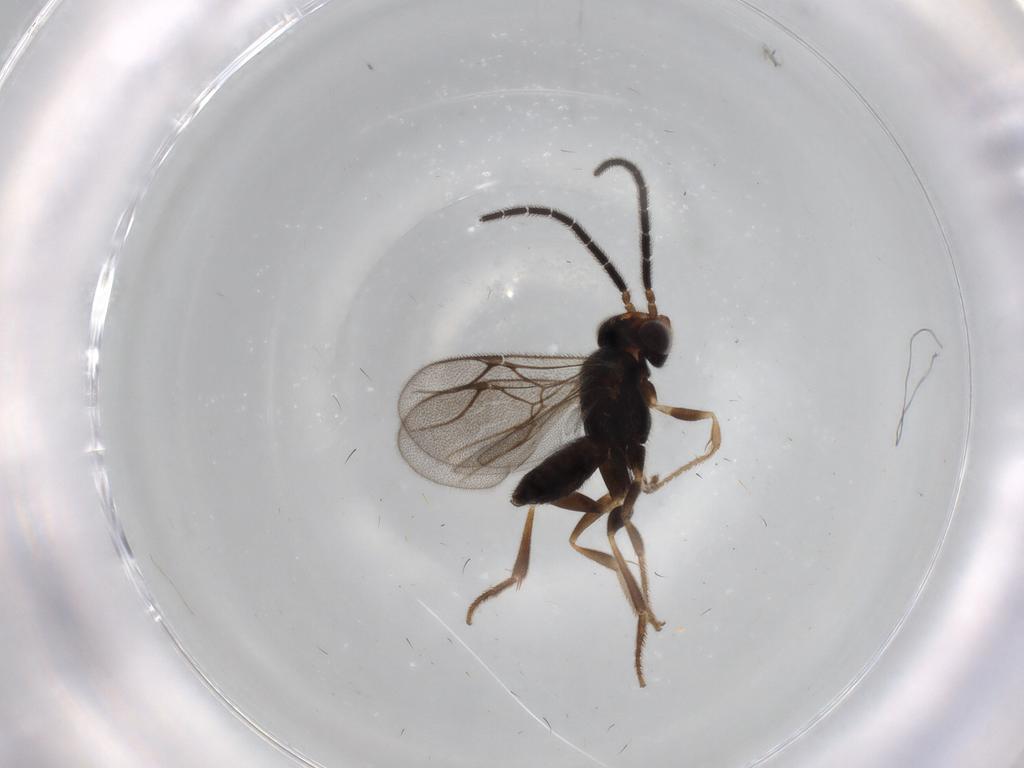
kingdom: Animalia
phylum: Arthropoda
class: Insecta
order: Hymenoptera
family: Dryinidae
